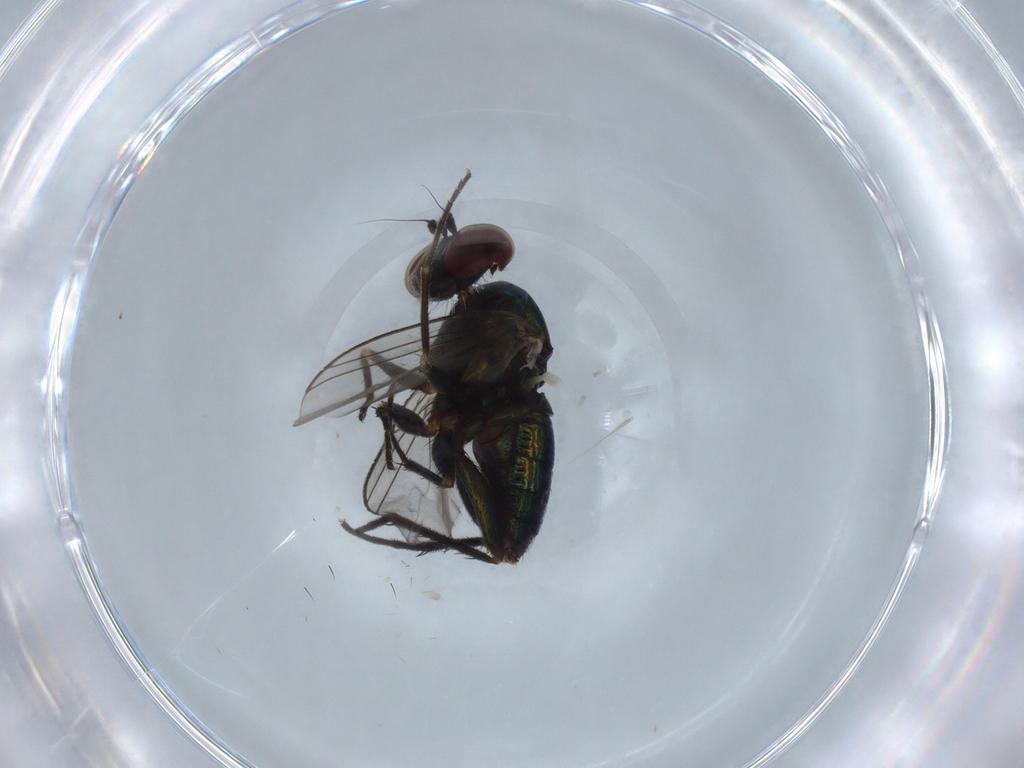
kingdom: Animalia
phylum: Arthropoda
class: Insecta
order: Diptera
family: Dolichopodidae
